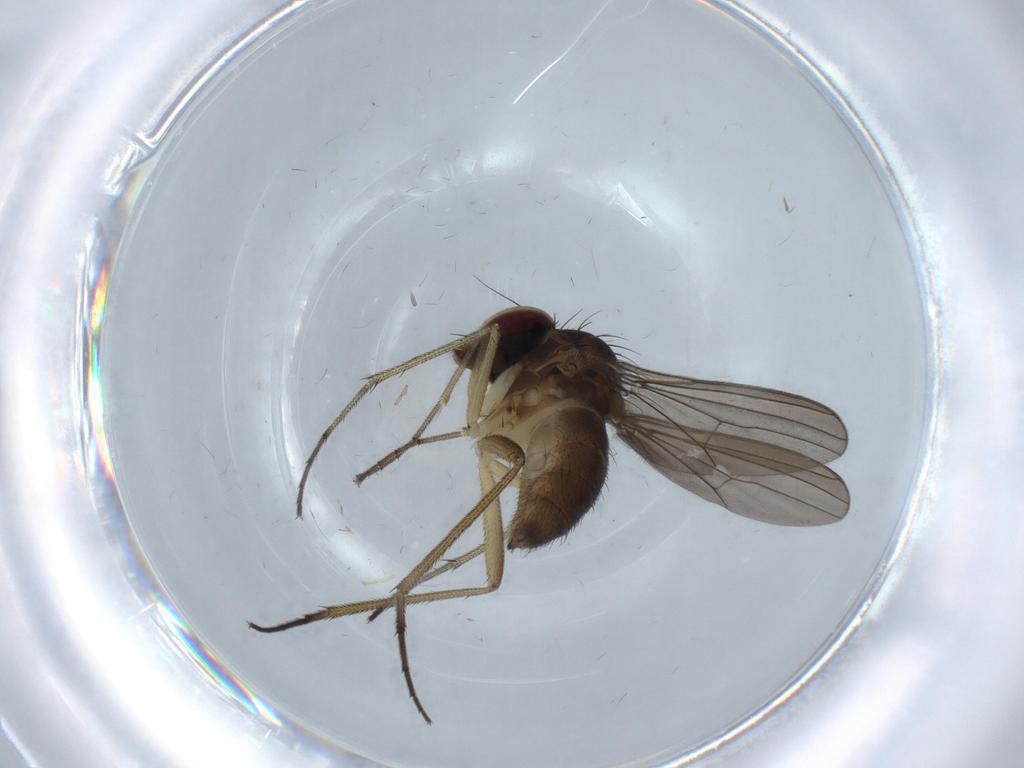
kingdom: Animalia
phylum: Arthropoda
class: Insecta
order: Diptera
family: Dolichopodidae
